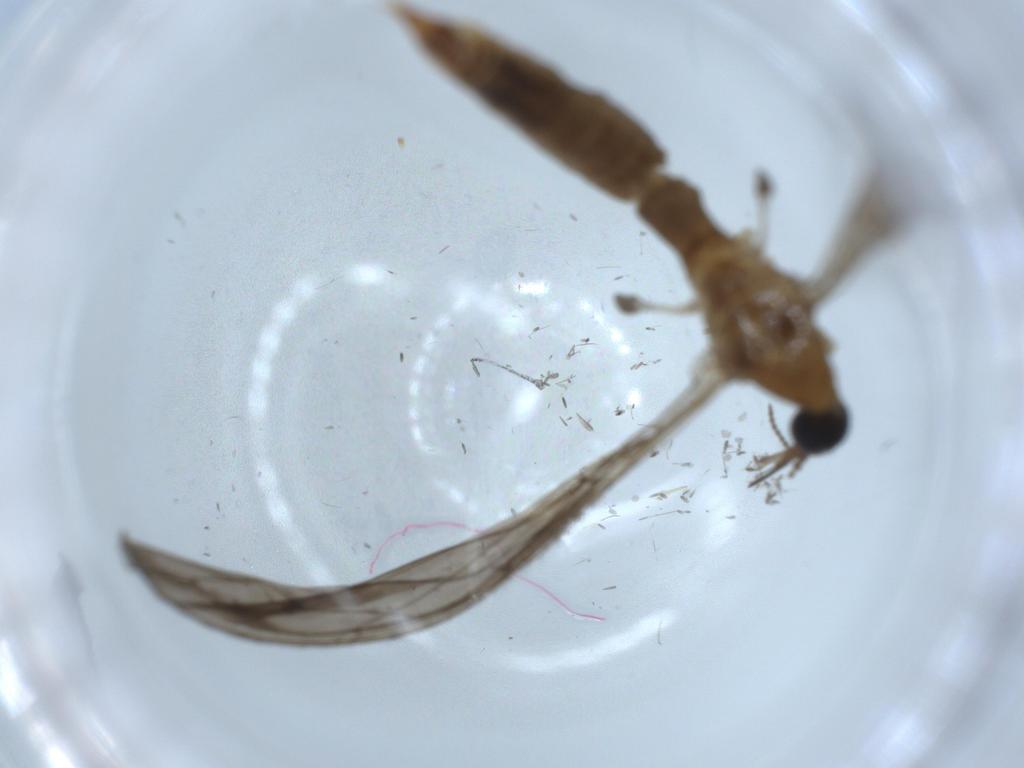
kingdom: Animalia
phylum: Arthropoda
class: Insecta
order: Diptera
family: Limoniidae
